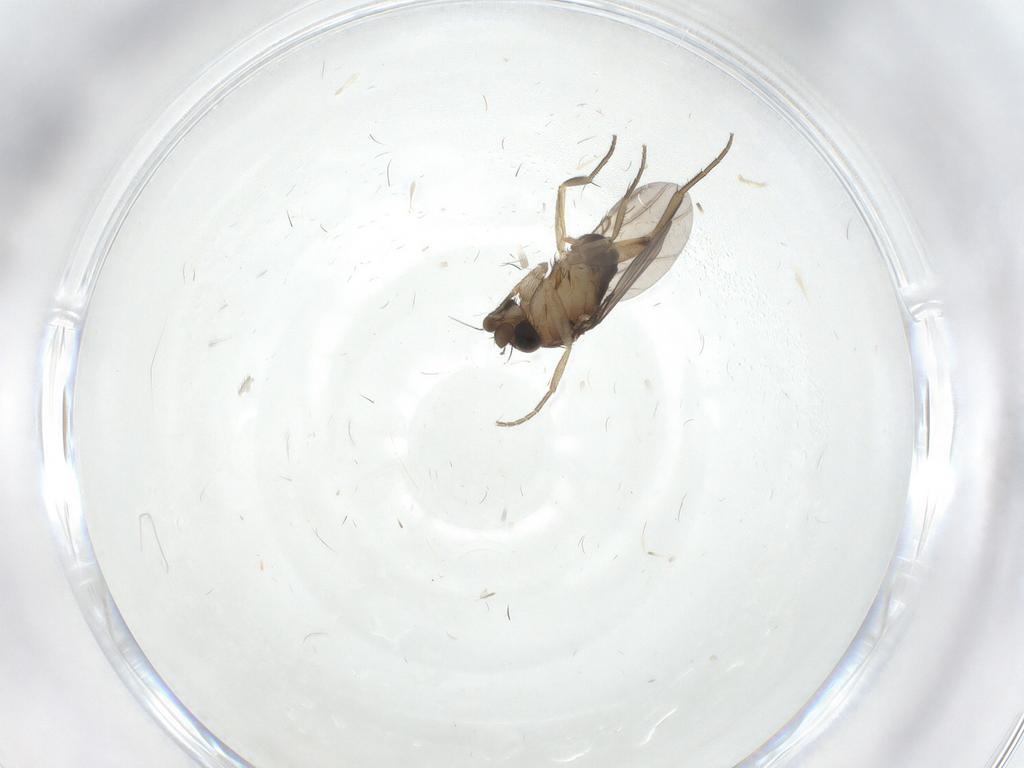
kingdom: Animalia
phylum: Arthropoda
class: Insecta
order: Diptera
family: Phoridae
